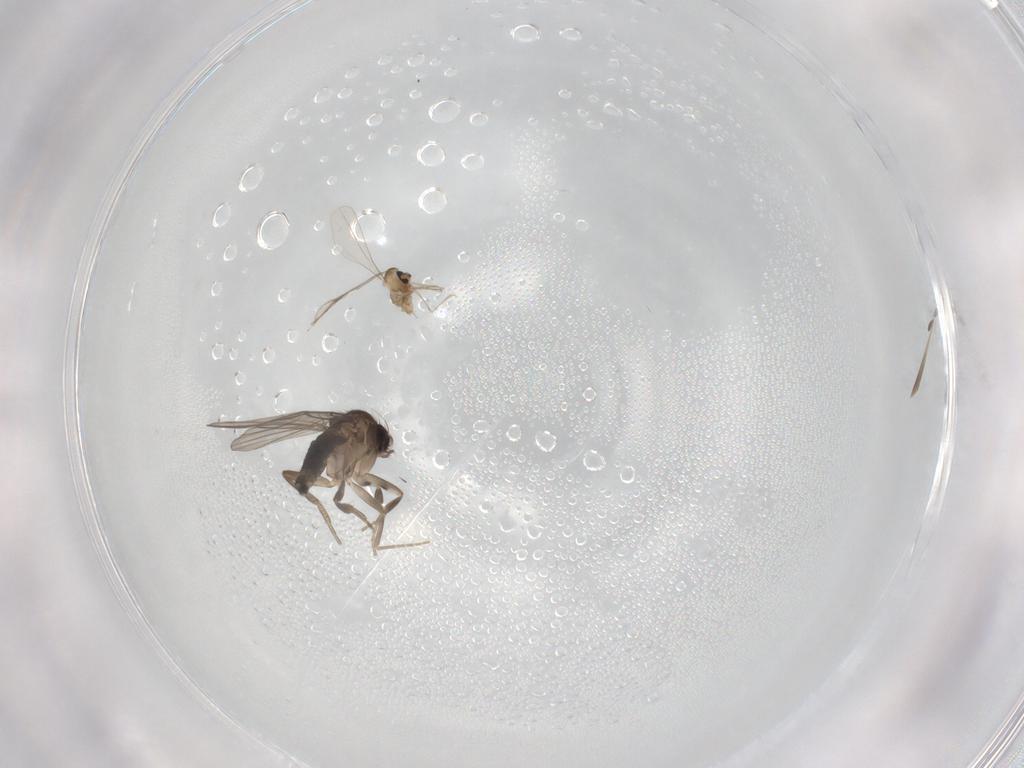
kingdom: Animalia
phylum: Arthropoda
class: Insecta
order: Diptera
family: Phoridae
